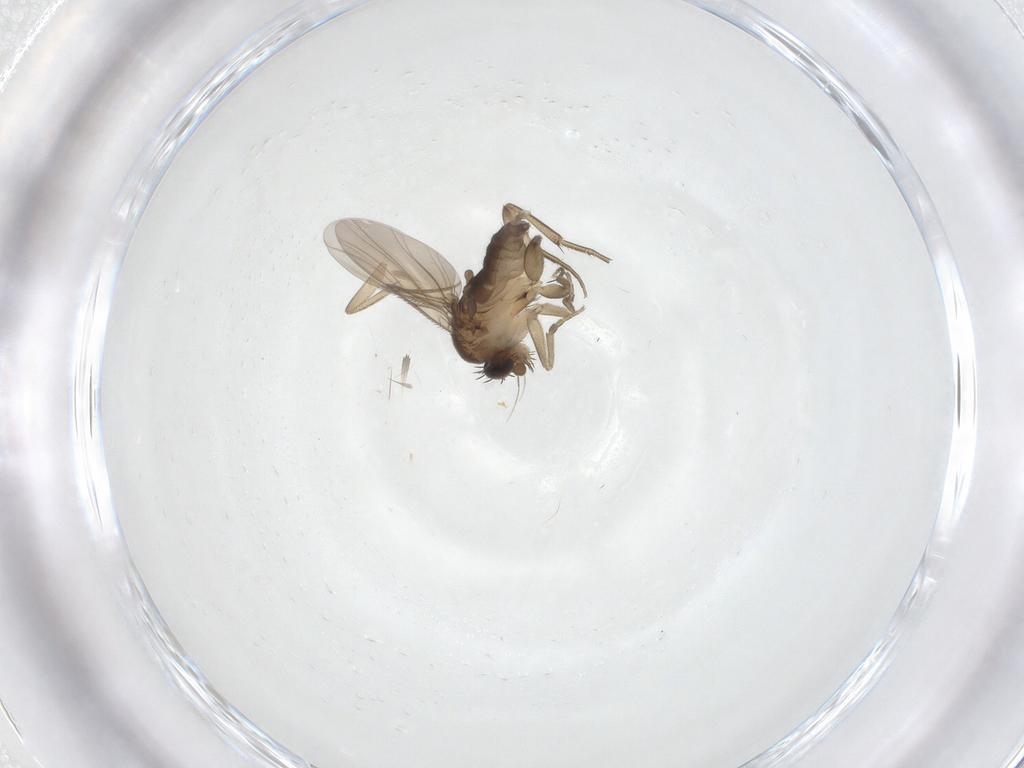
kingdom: Animalia
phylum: Arthropoda
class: Insecta
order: Diptera
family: Phoridae
